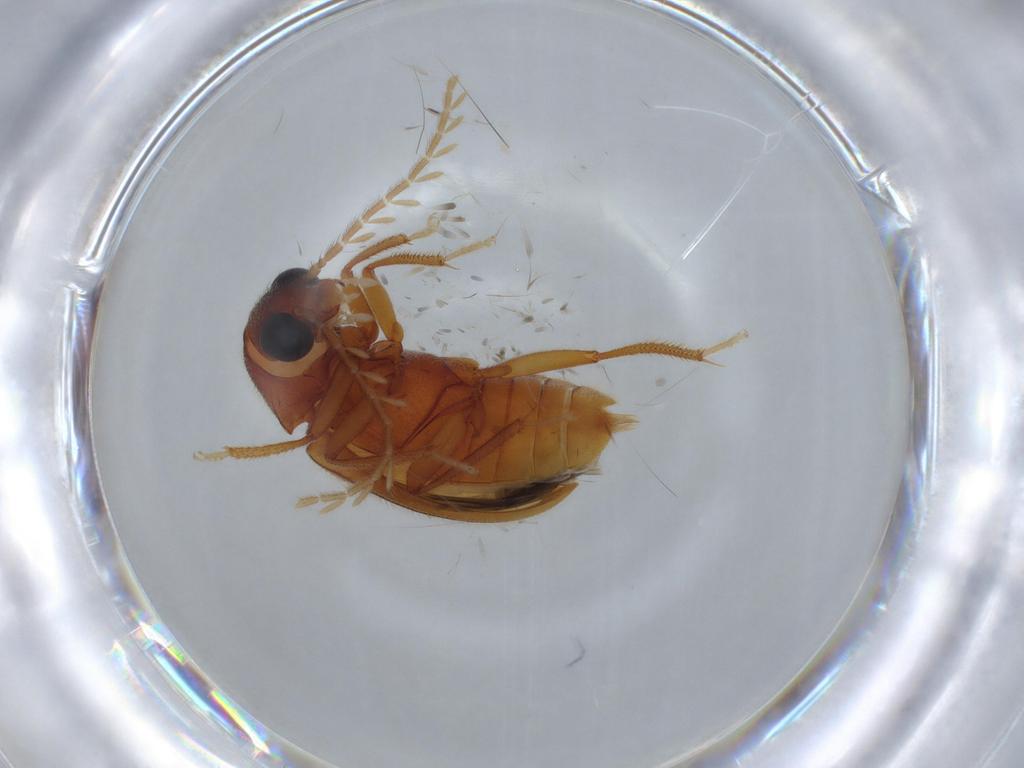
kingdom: Animalia
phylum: Arthropoda
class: Insecta
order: Coleoptera
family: Ptilodactylidae
